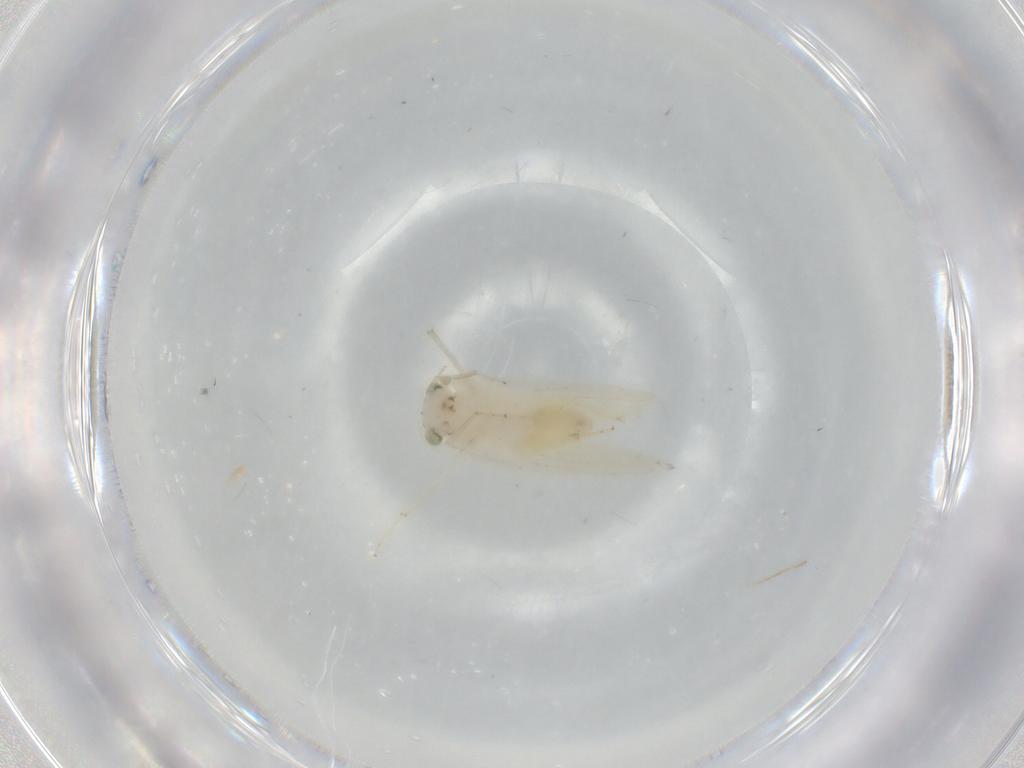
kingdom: Animalia
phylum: Arthropoda
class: Insecta
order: Psocodea
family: Lepidopsocidae
